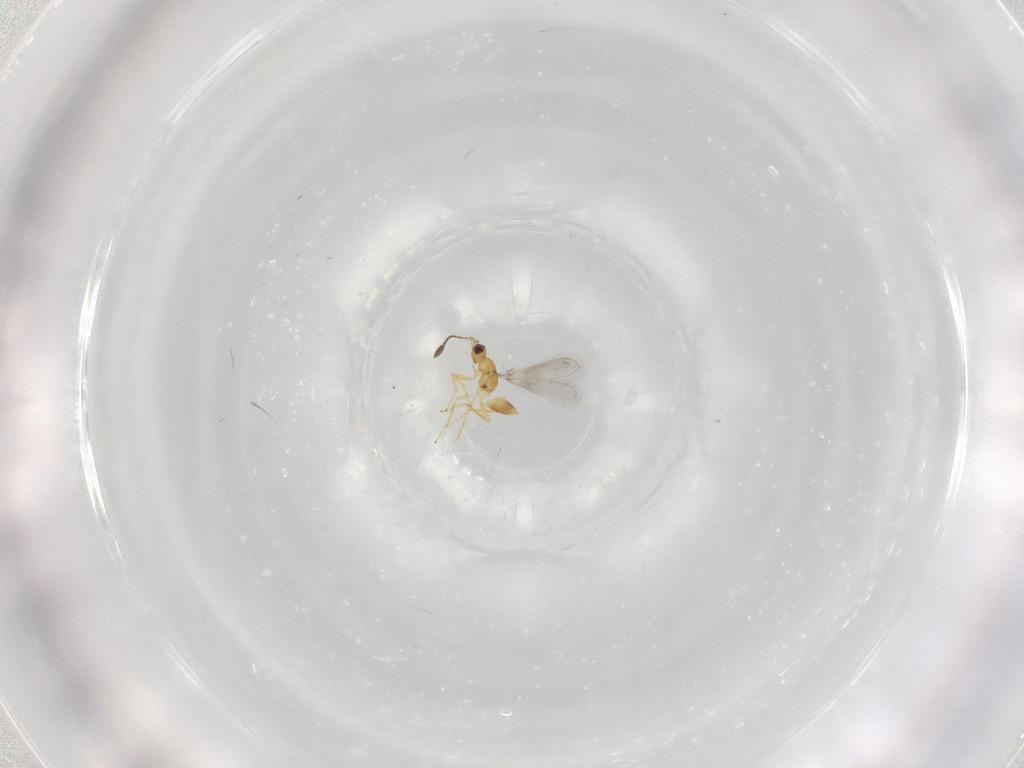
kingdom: Animalia
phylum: Arthropoda
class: Insecta
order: Hymenoptera
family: Mymaridae
